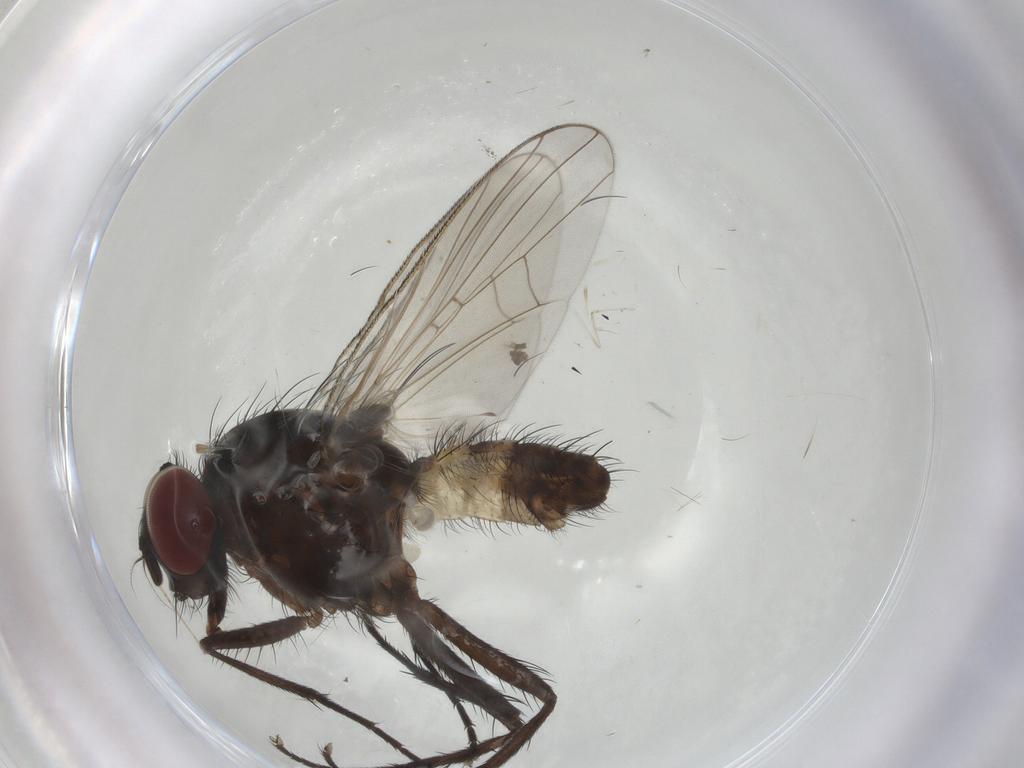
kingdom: Animalia
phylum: Arthropoda
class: Insecta
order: Diptera
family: Anthomyiidae
